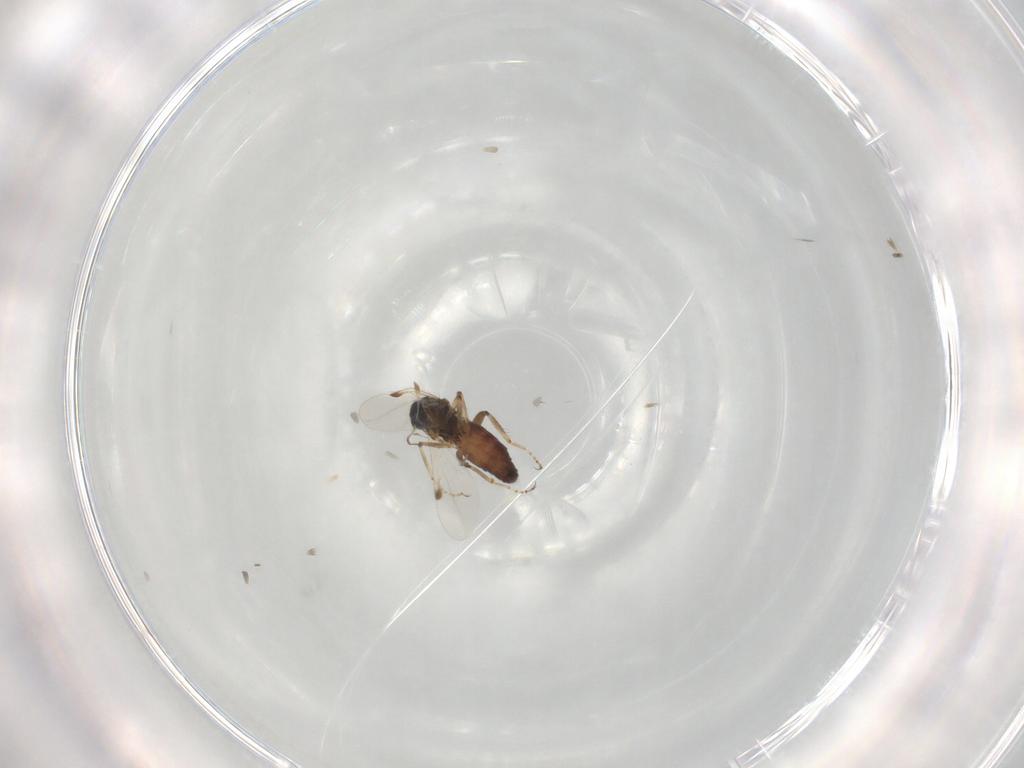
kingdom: Animalia
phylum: Arthropoda
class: Insecta
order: Diptera
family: Ceratopogonidae
